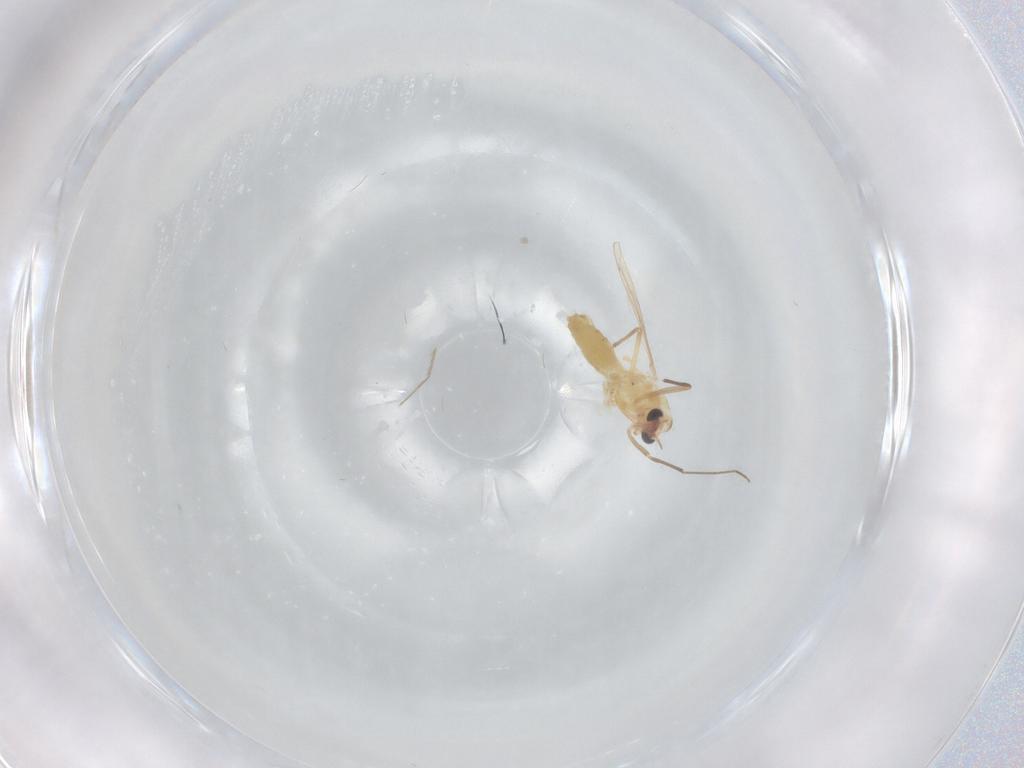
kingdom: Animalia
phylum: Arthropoda
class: Insecta
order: Diptera
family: Chironomidae
